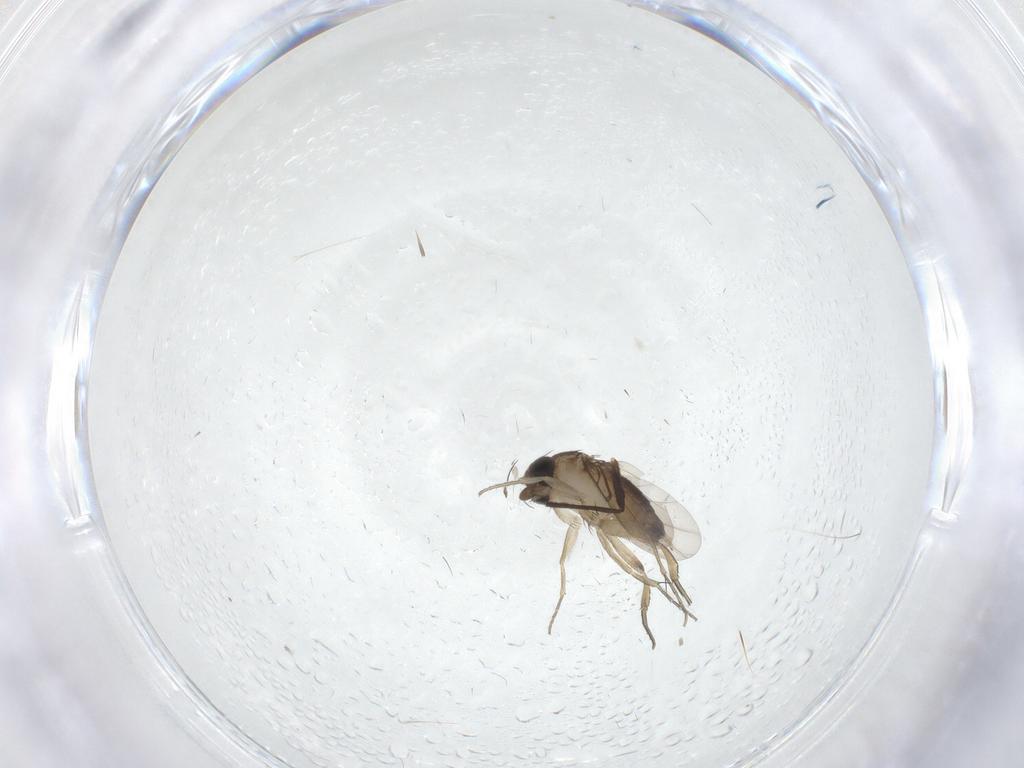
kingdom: Animalia
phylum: Arthropoda
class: Insecta
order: Diptera
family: Phoridae
